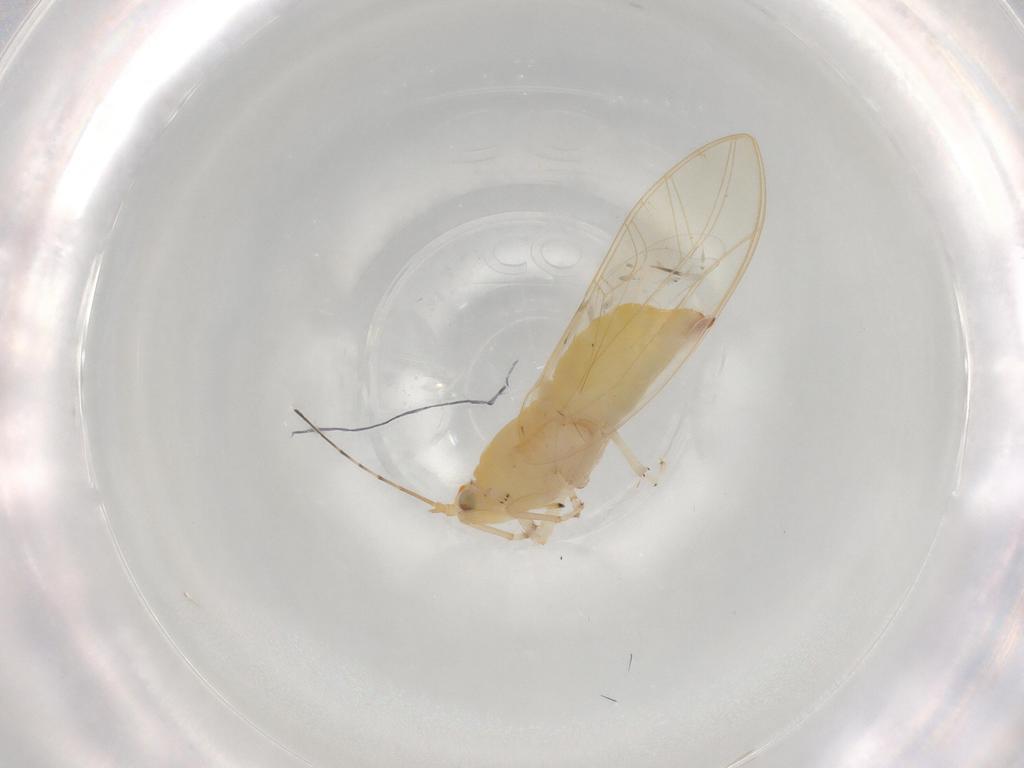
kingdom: Animalia
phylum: Arthropoda
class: Insecta
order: Hemiptera
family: Carsidaridae
